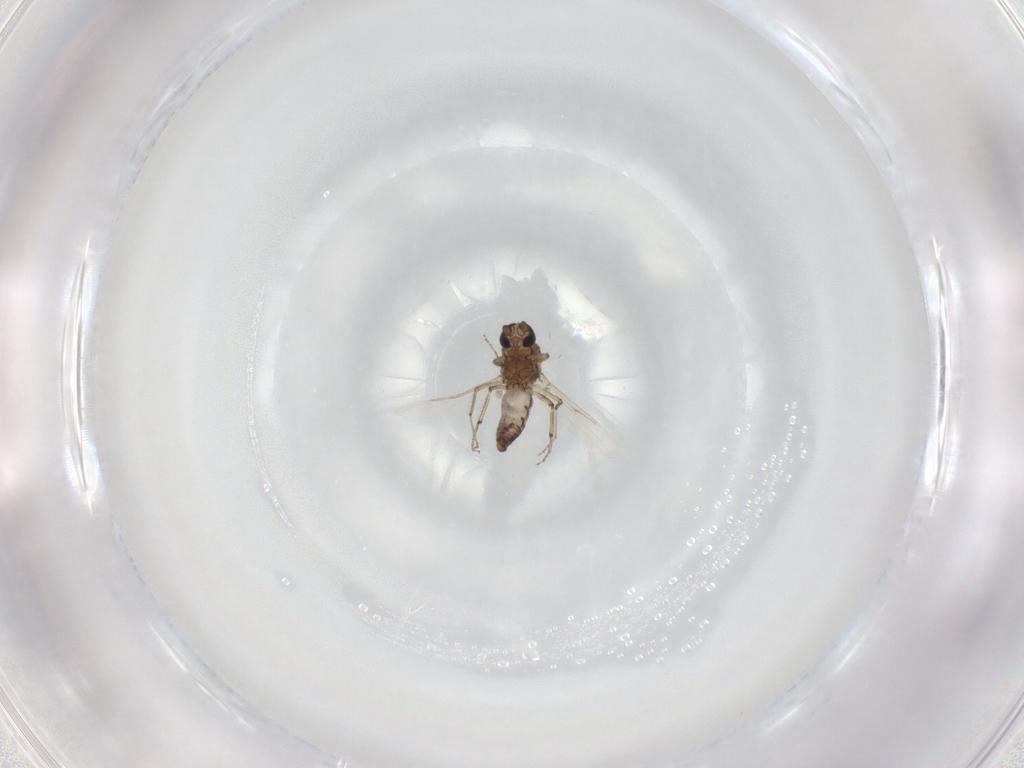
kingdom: Animalia
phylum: Arthropoda
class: Insecta
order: Diptera
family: Ceratopogonidae
